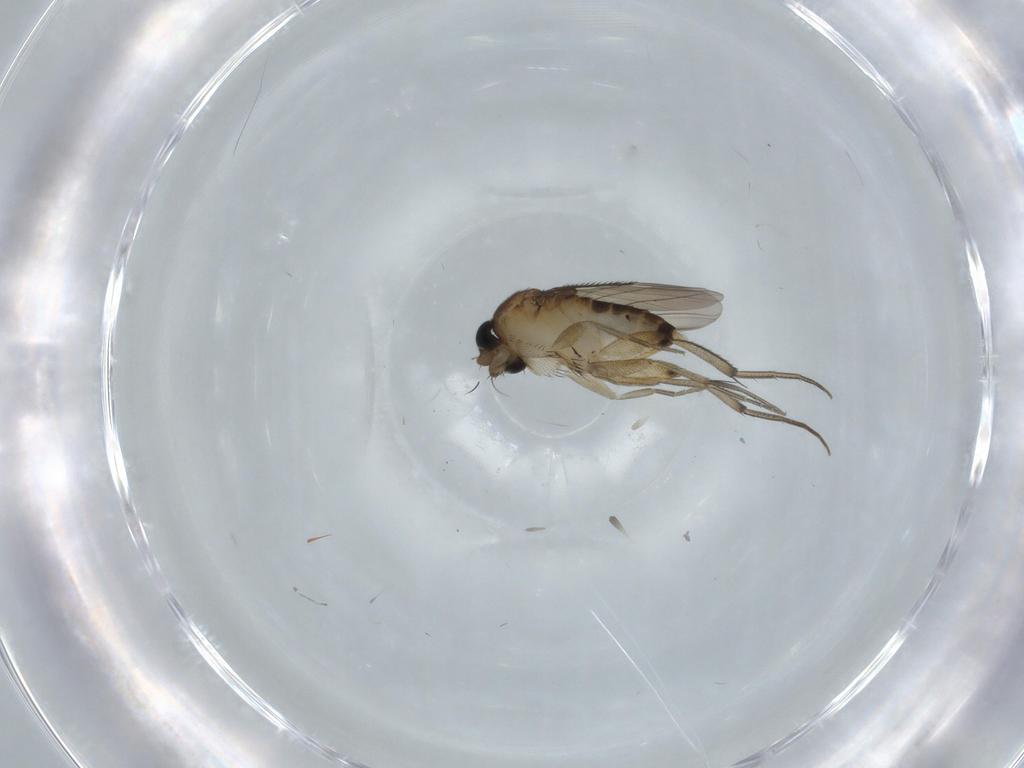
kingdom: Animalia
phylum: Arthropoda
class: Insecta
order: Diptera
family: Phoridae
